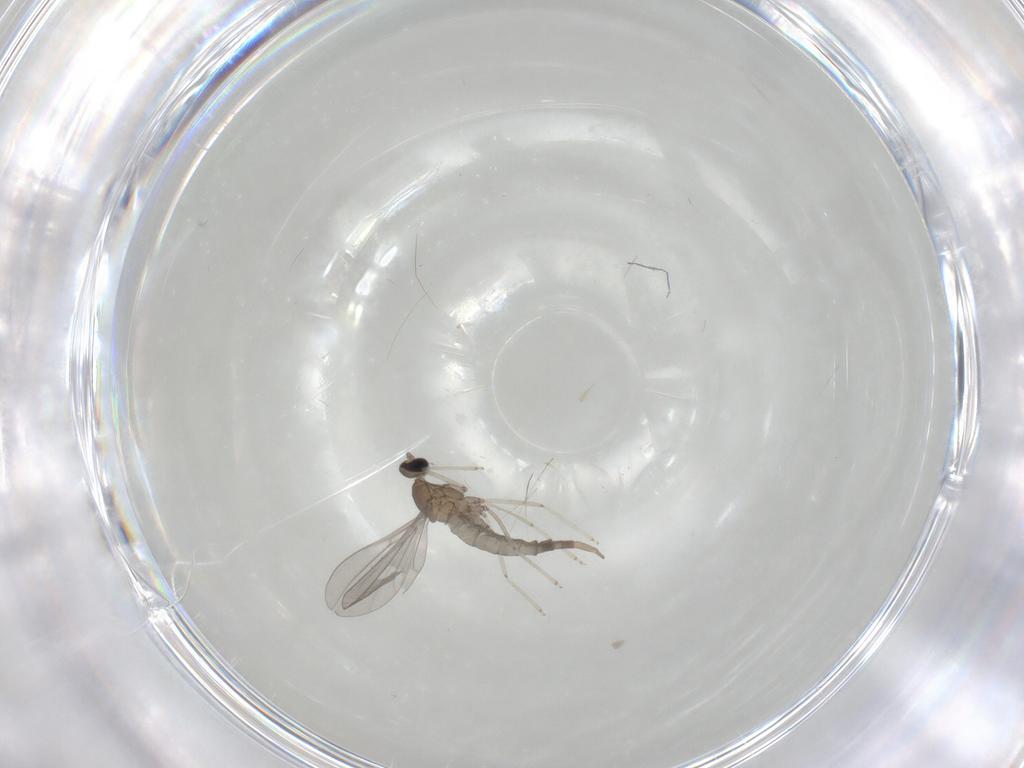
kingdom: Animalia
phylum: Arthropoda
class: Insecta
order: Diptera
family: Cecidomyiidae
